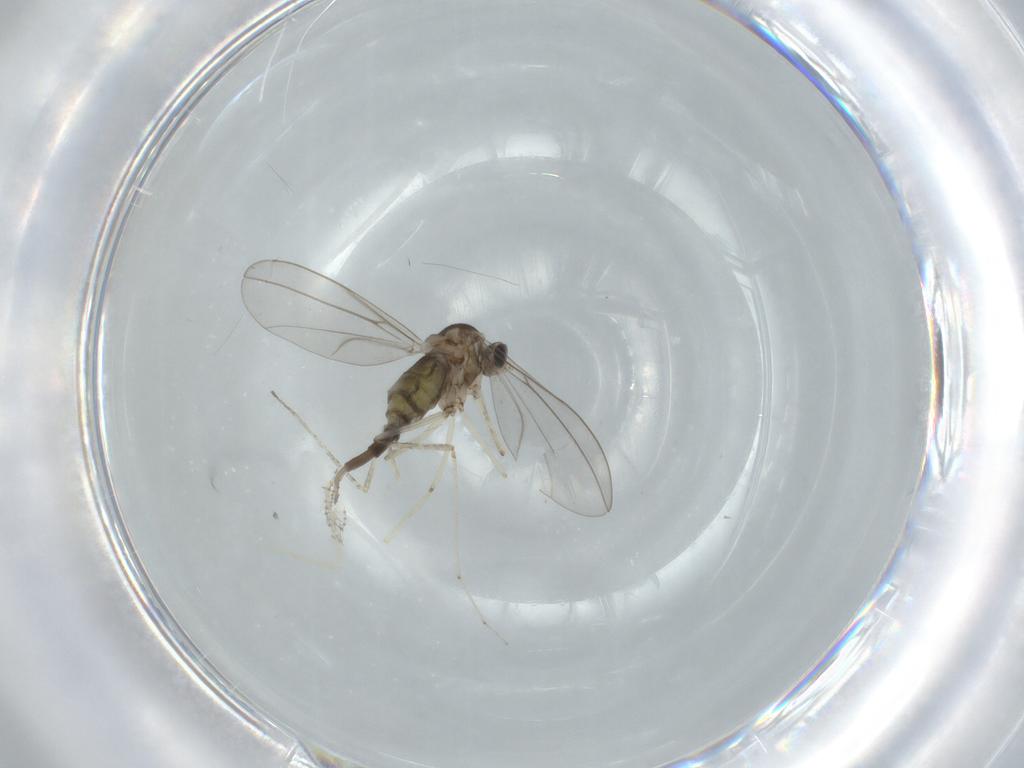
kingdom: Animalia
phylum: Arthropoda
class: Insecta
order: Diptera
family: Cecidomyiidae
